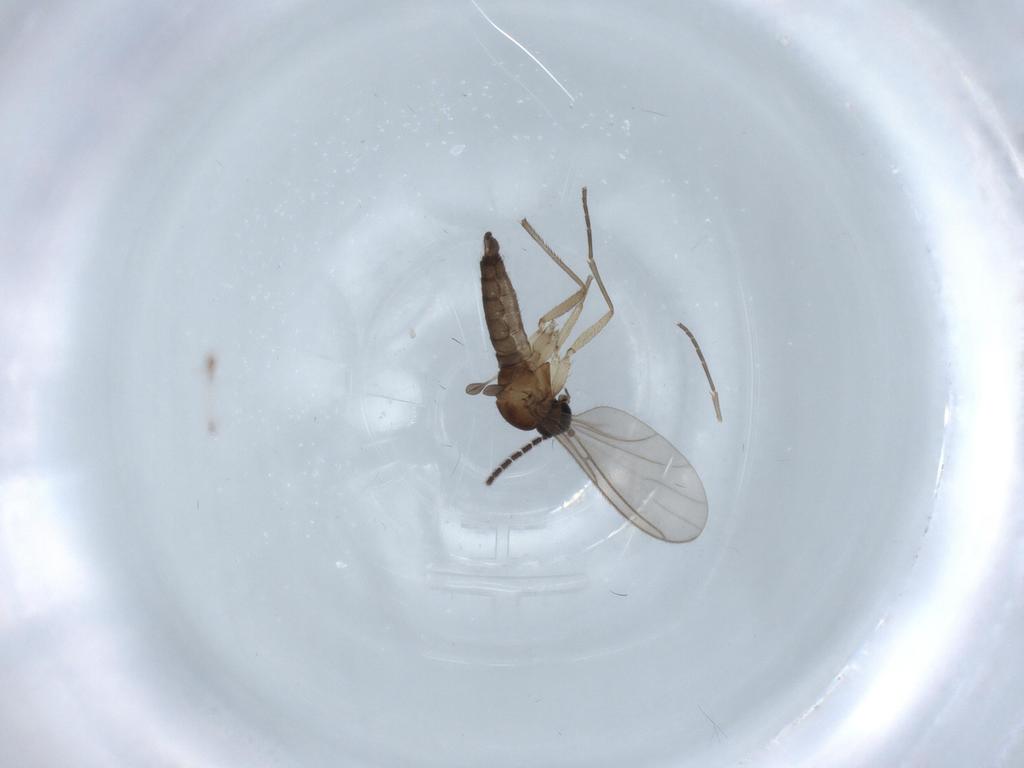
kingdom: Animalia
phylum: Arthropoda
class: Insecta
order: Diptera
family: Sciaridae
